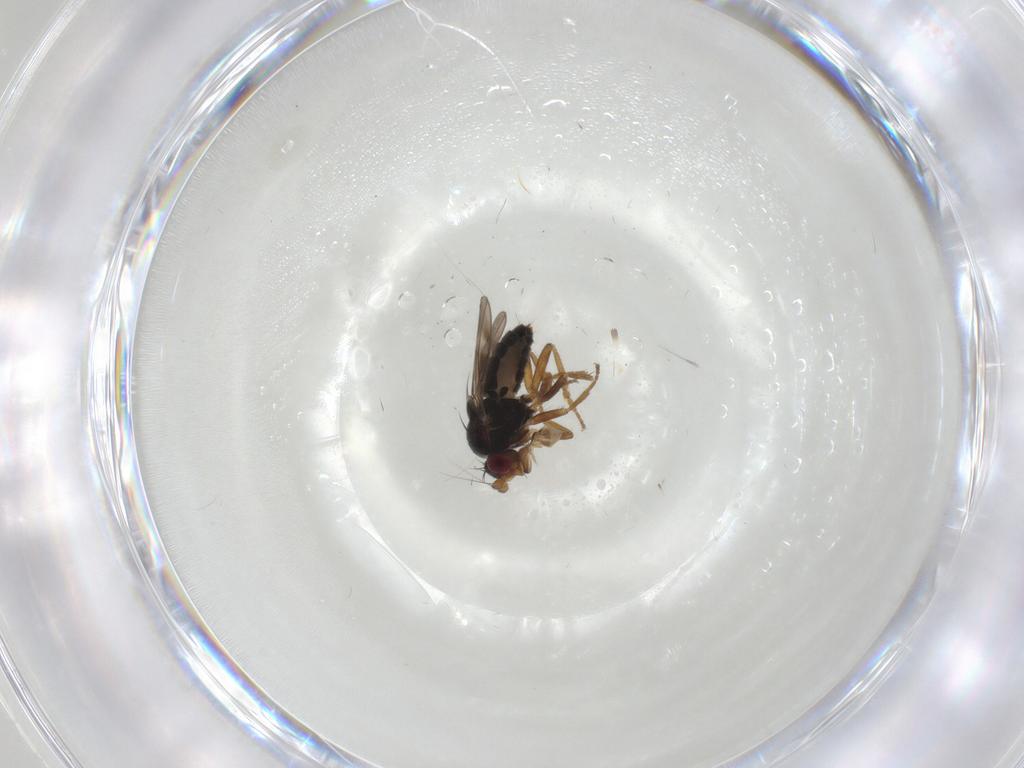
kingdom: Animalia
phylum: Arthropoda
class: Insecta
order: Diptera
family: Sphaeroceridae
